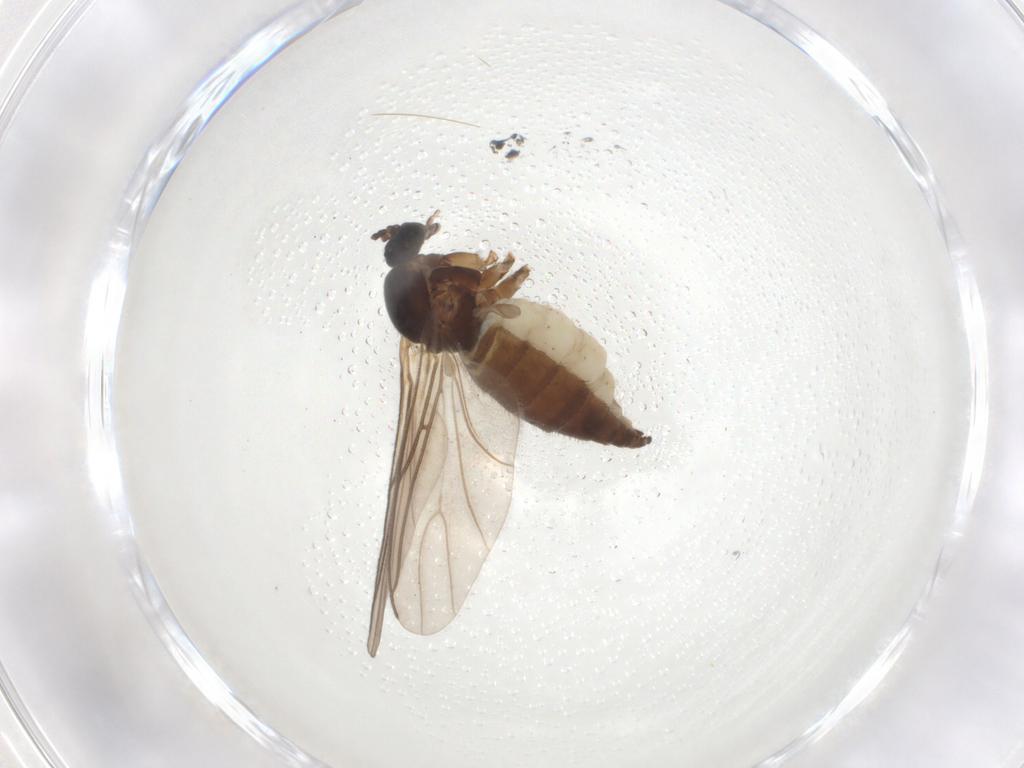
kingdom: Animalia
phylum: Arthropoda
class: Insecta
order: Diptera
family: Sciaridae
